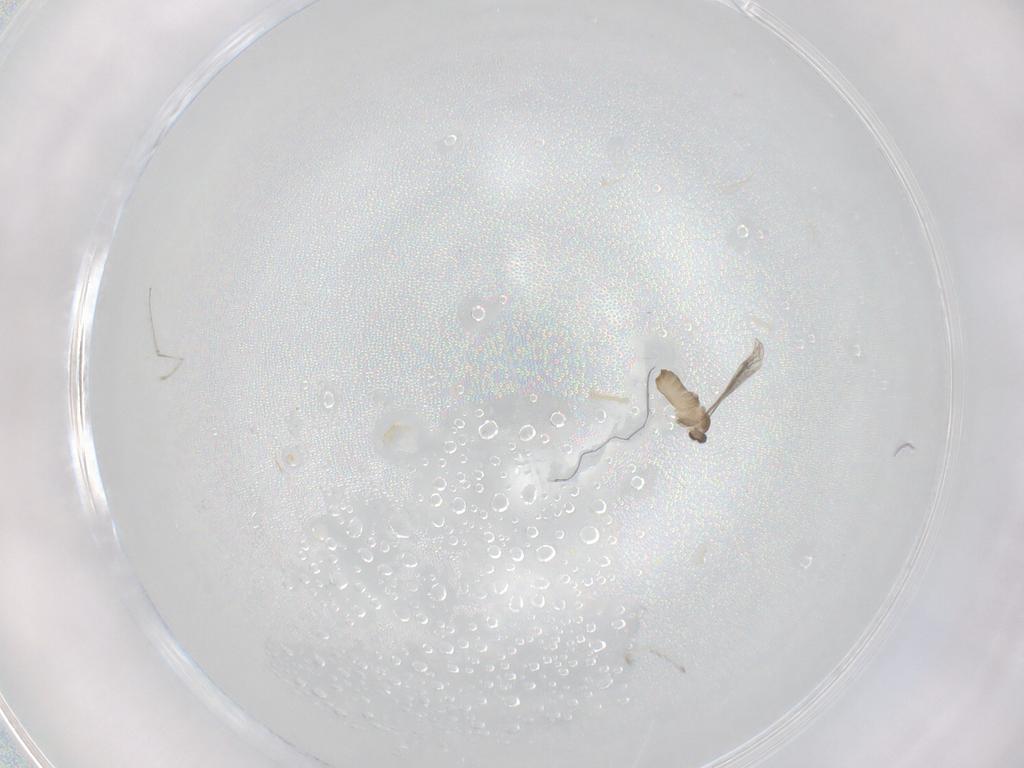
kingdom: Animalia
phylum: Arthropoda
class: Insecta
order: Diptera
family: Cecidomyiidae
